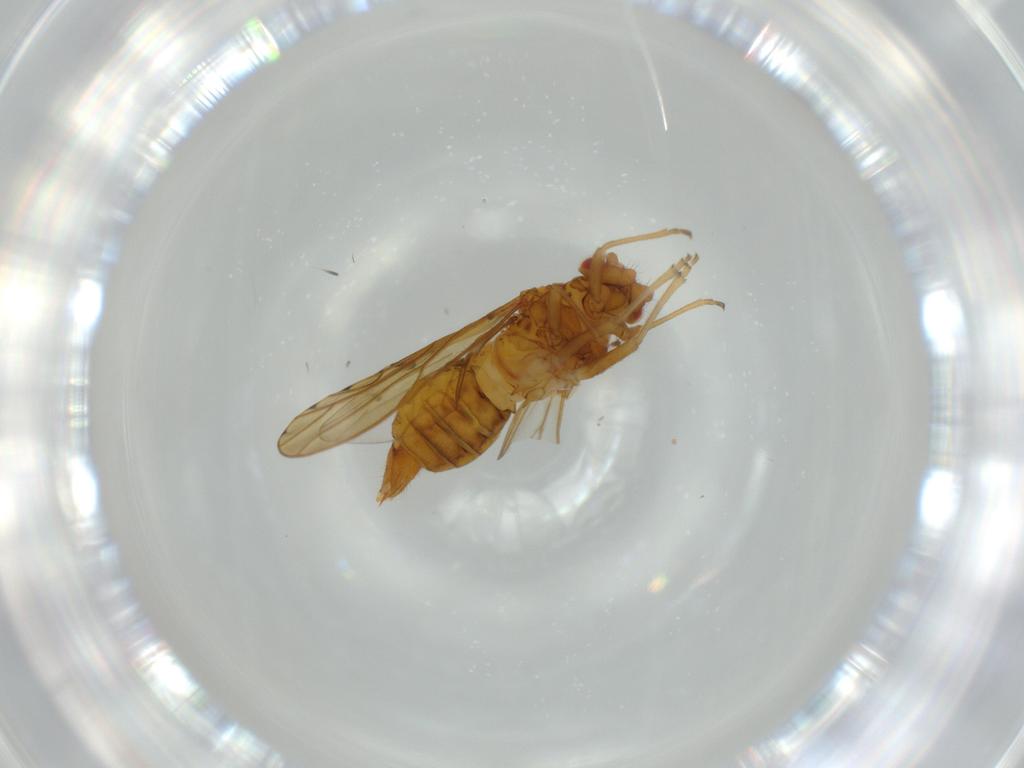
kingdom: Animalia
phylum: Arthropoda
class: Insecta
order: Hemiptera
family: Psylloidea_incertae_sedis
